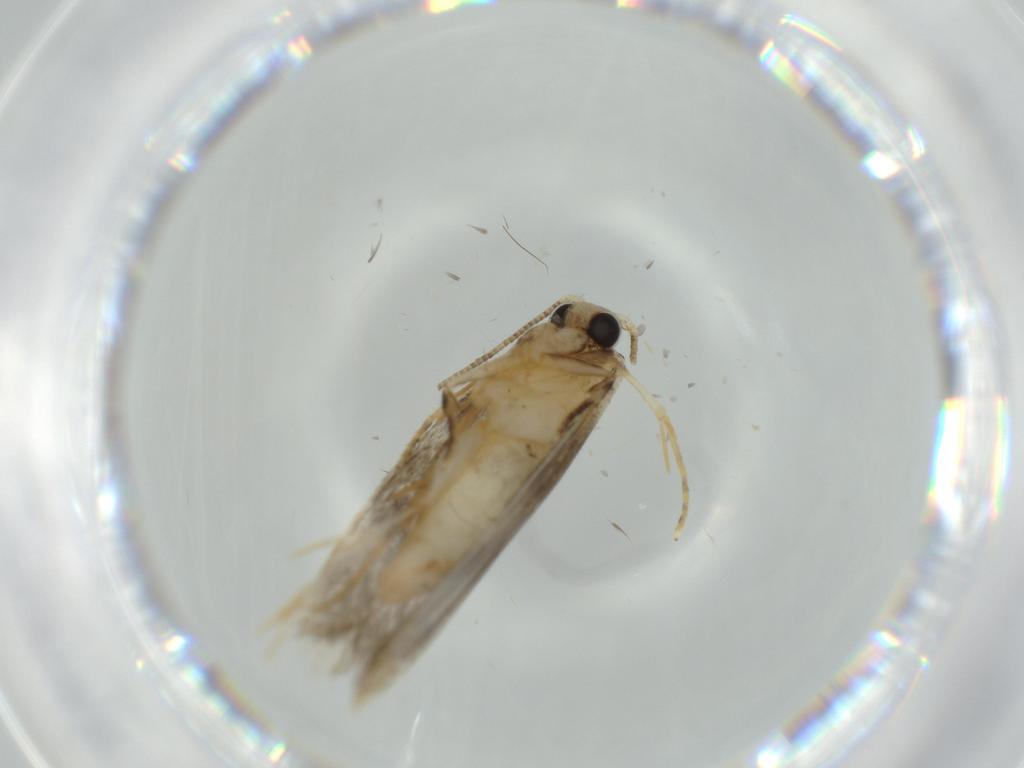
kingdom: Animalia
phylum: Arthropoda
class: Insecta
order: Lepidoptera
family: Tineidae
